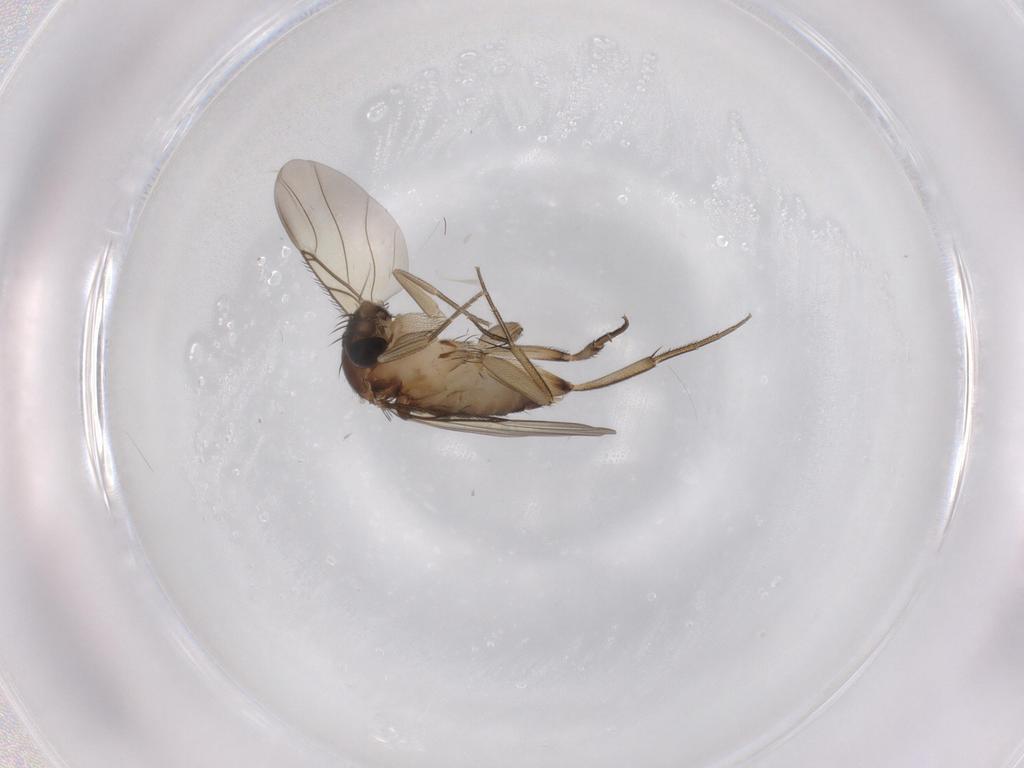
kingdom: Animalia
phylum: Arthropoda
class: Insecta
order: Diptera
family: Phoridae
